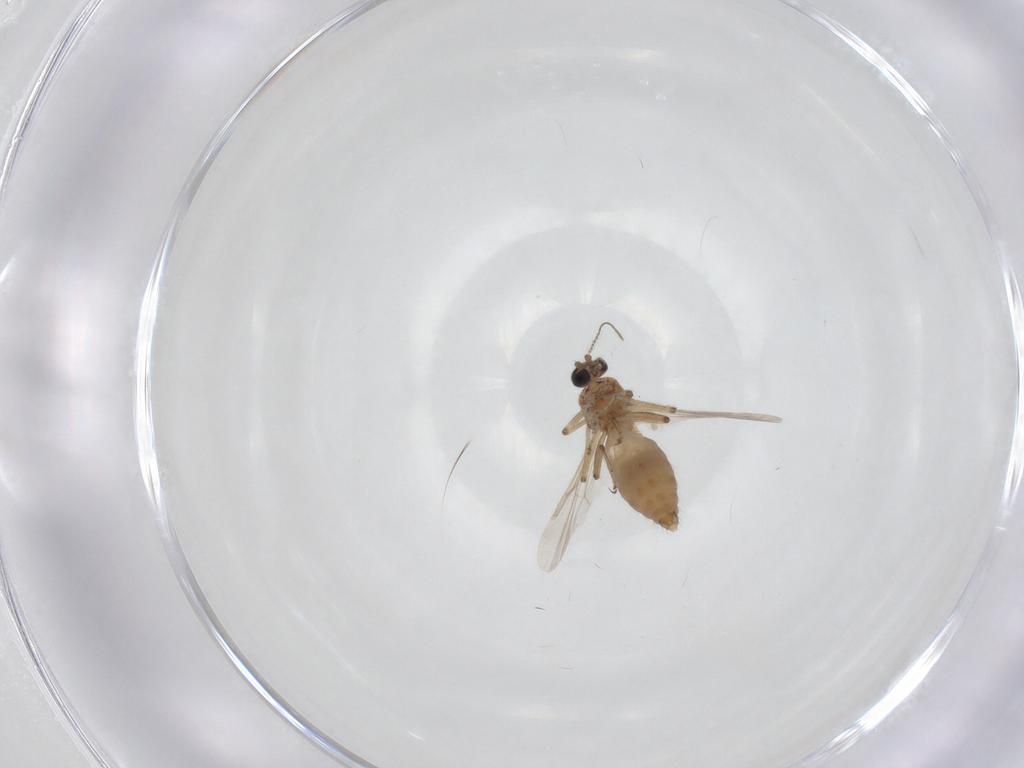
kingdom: Animalia
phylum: Arthropoda
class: Insecta
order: Diptera
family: Ceratopogonidae
